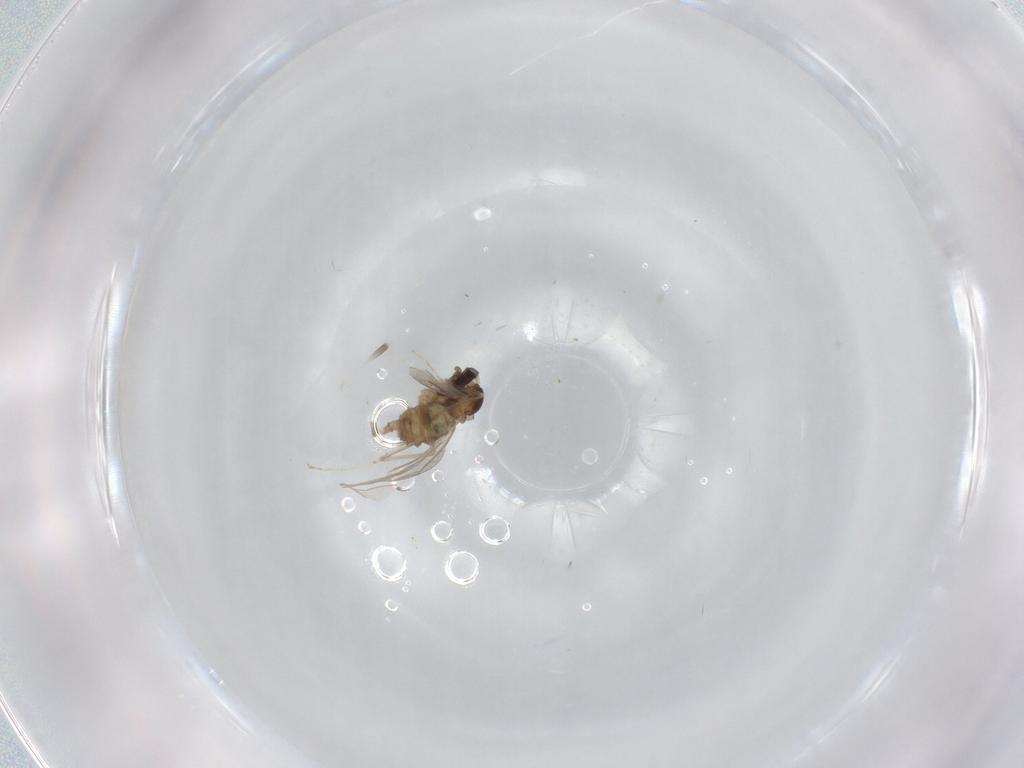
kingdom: Animalia
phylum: Arthropoda
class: Insecta
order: Diptera
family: Cecidomyiidae
